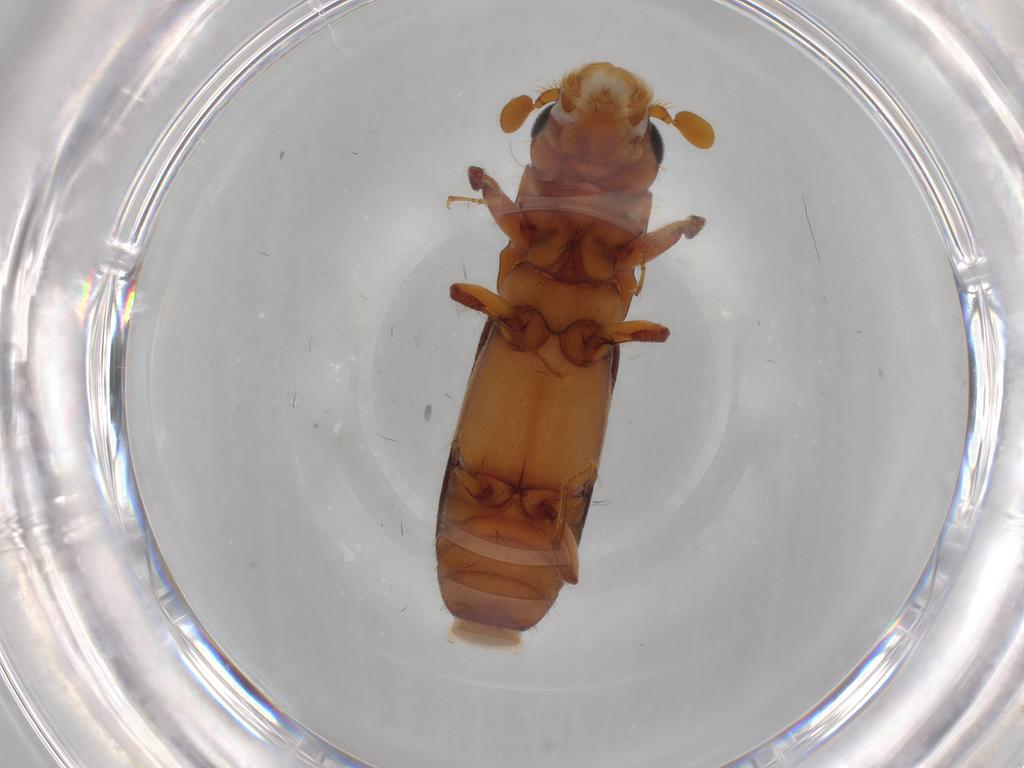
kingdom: Animalia
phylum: Arthropoda
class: Insecta
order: Coleoptera
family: Curculionidae
